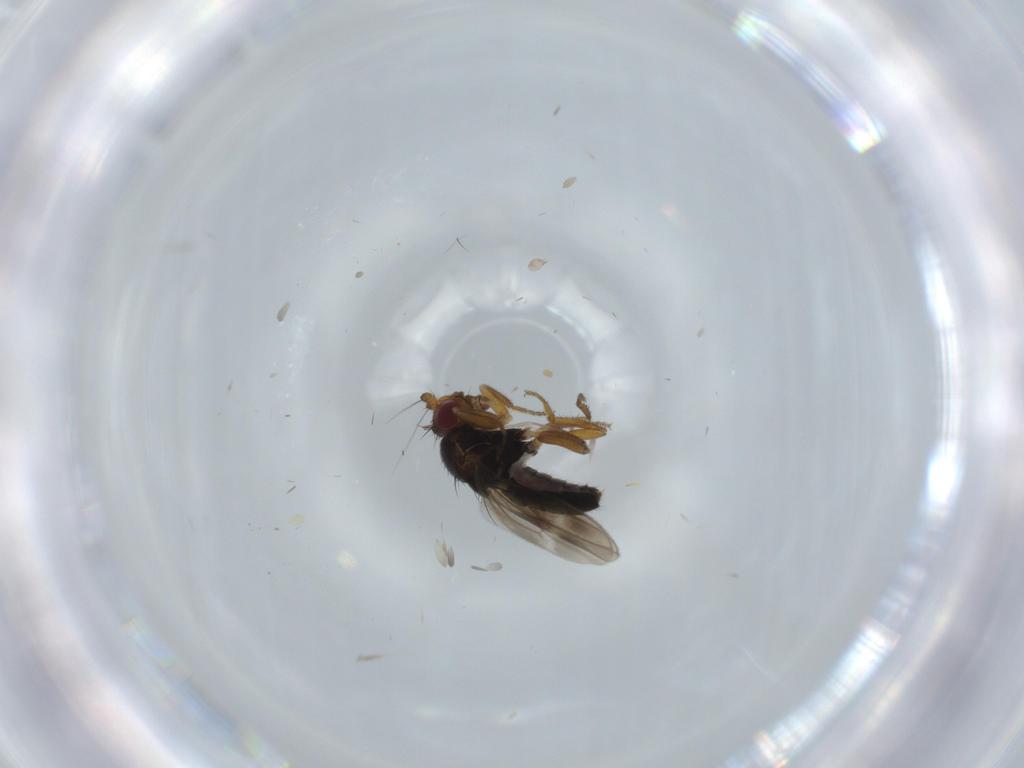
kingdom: Animalia
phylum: Arthropoda
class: Insecta
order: Diptera
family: Sphaeroceridae
